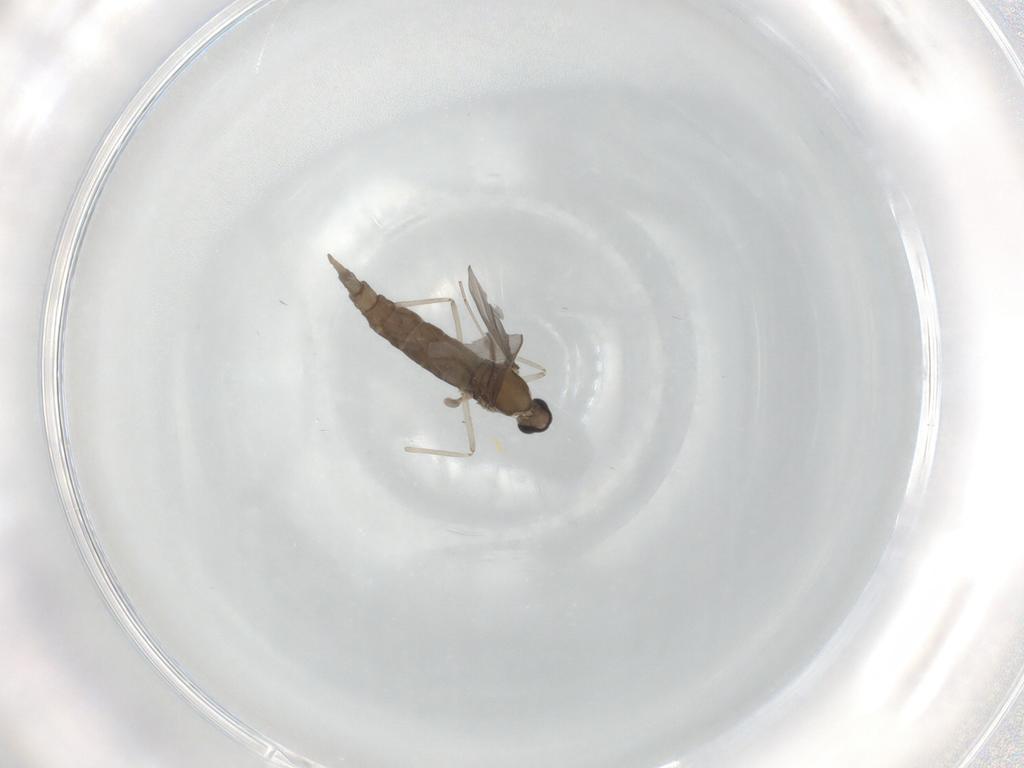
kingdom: Animalia
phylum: Arthropoda
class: Insecta
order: Diptera
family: Cecidomyiidae
